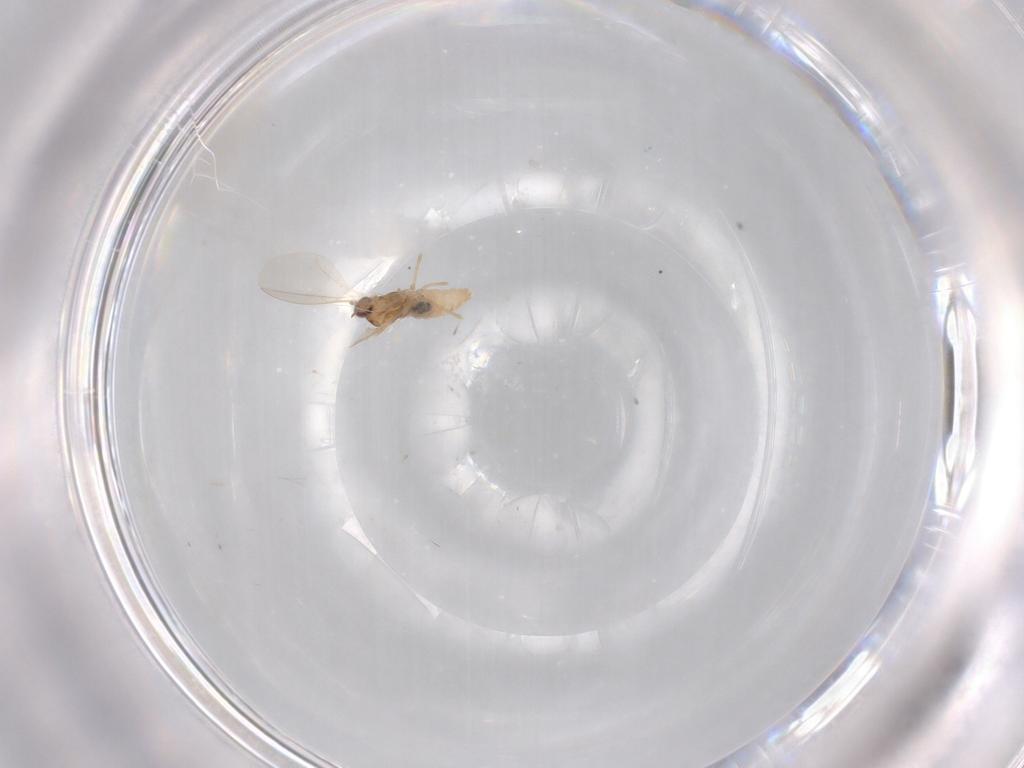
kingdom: Animalia
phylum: Arthropoda
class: Insecta
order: Diptera
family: Cecidomyiidae
